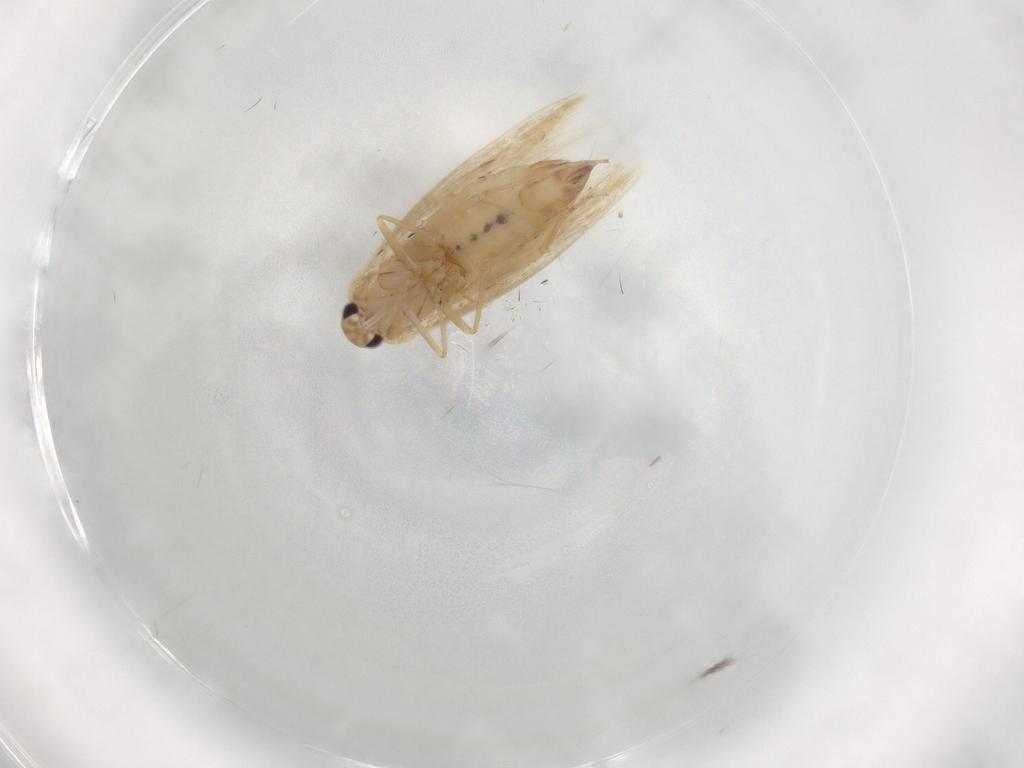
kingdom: Animalia
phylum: Arthropoda
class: Insecta
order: Lepidoptera
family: Bucculatricidae
